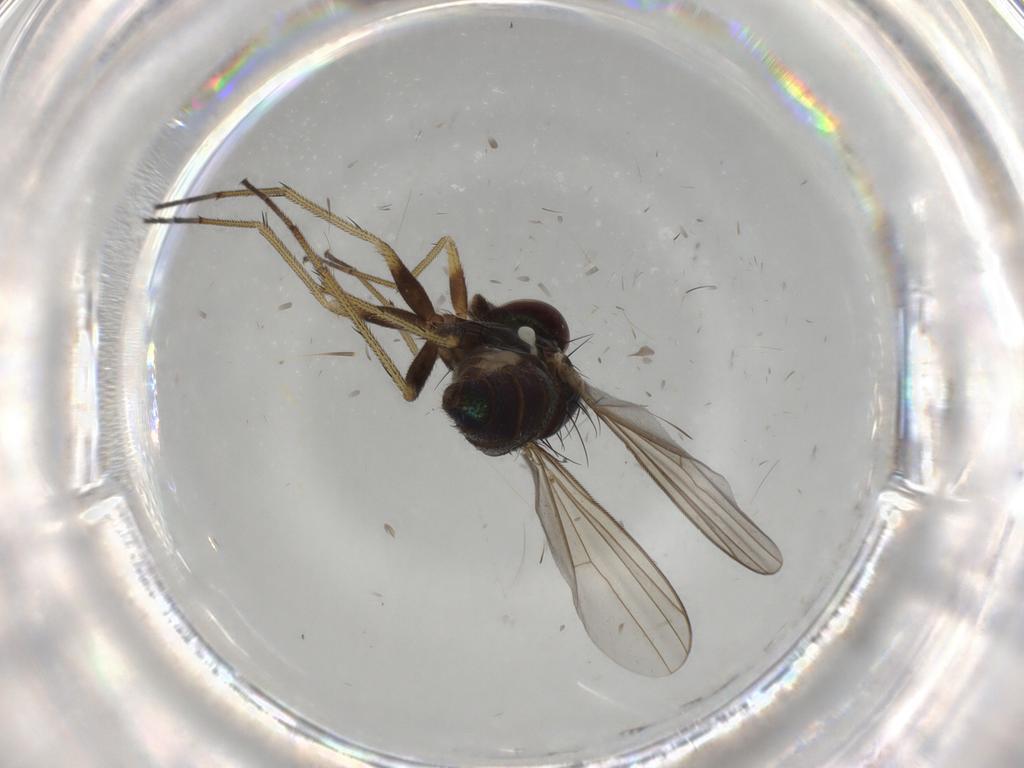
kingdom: Animalia
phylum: Arthropoda
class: Insecta
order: Diptera
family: Dolichopodidae
